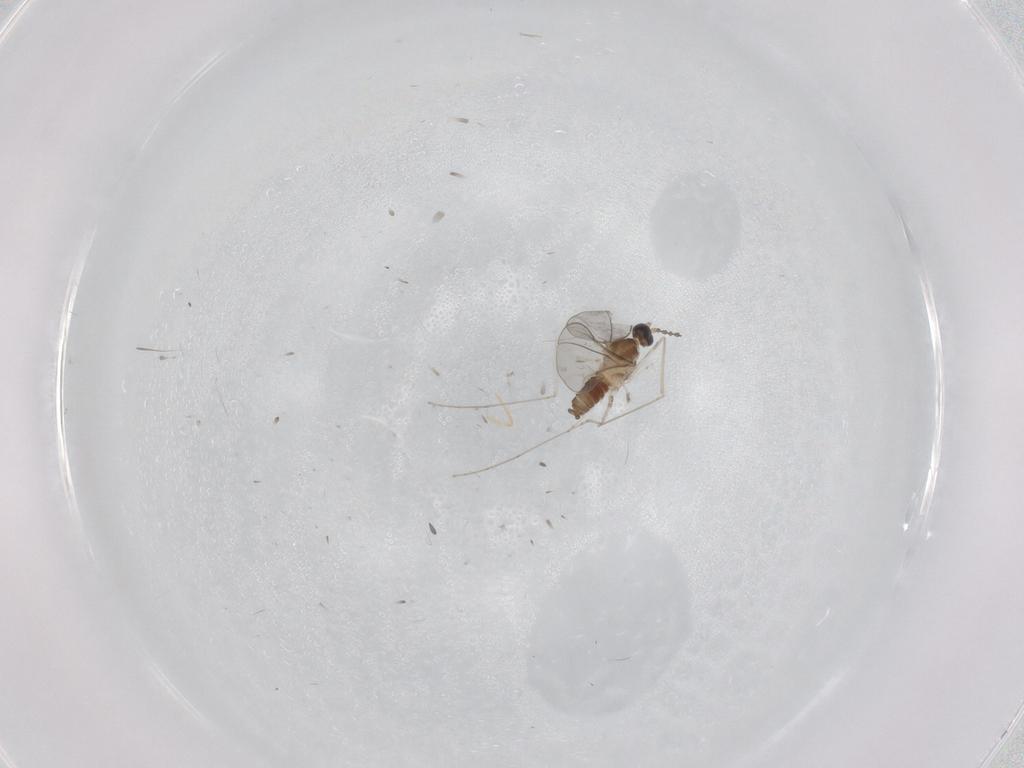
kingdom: Animalia
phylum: Arthropoda
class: Insecta
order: Diptera
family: Cecidomyiidae
